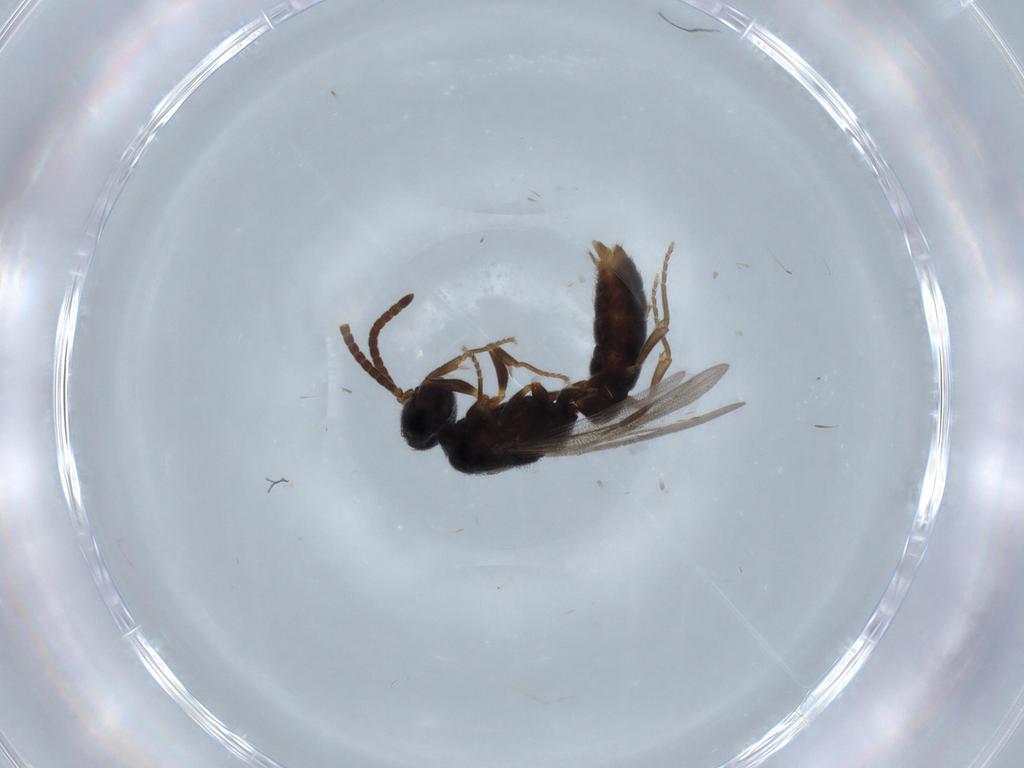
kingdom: Animalia
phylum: Arthropoda
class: Insecta
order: Hymenoptera
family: Formicidae
